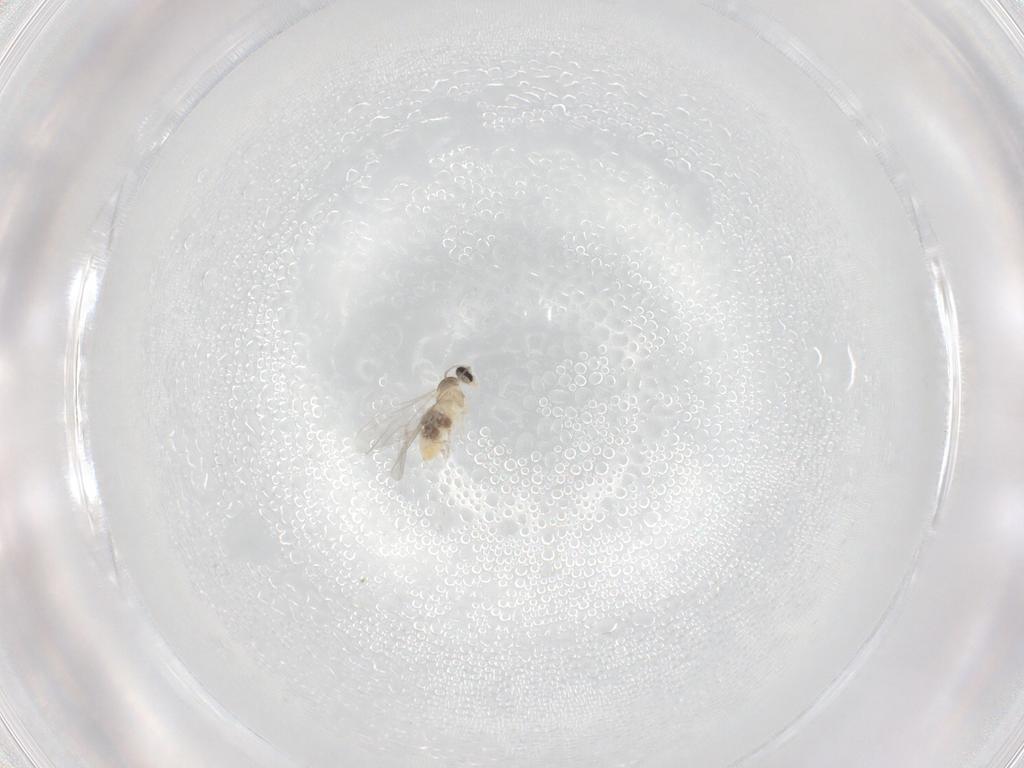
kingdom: Animalia
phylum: Arthropoda
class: Insecta
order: Diptera
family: Cecidomyiidae
